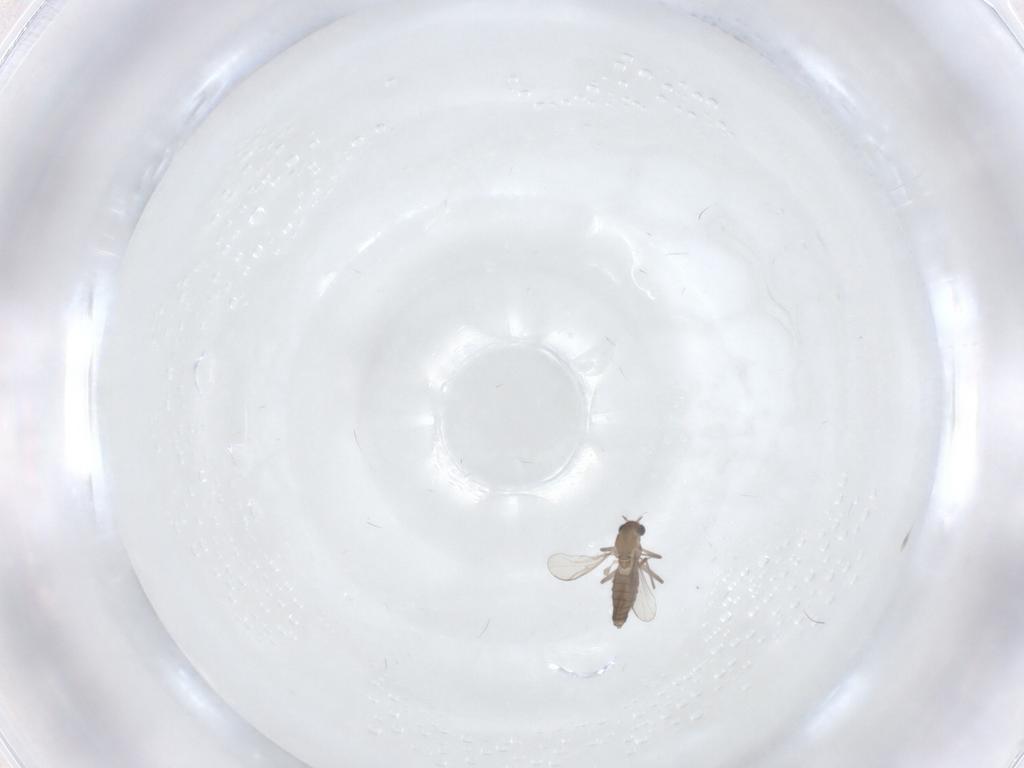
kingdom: Animalia
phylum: Arthropoda
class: Insecta
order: Diptera
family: Chironomidae
